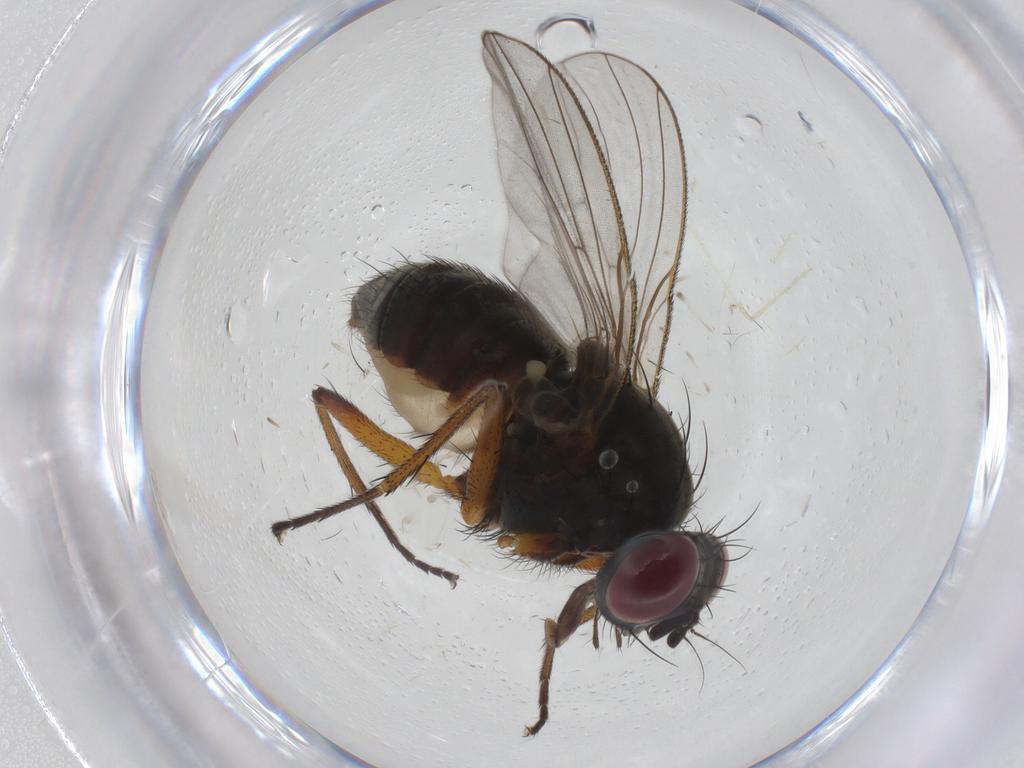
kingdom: Animalia
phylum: Arthropoda
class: Insecta
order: Diptera
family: Muscidae
